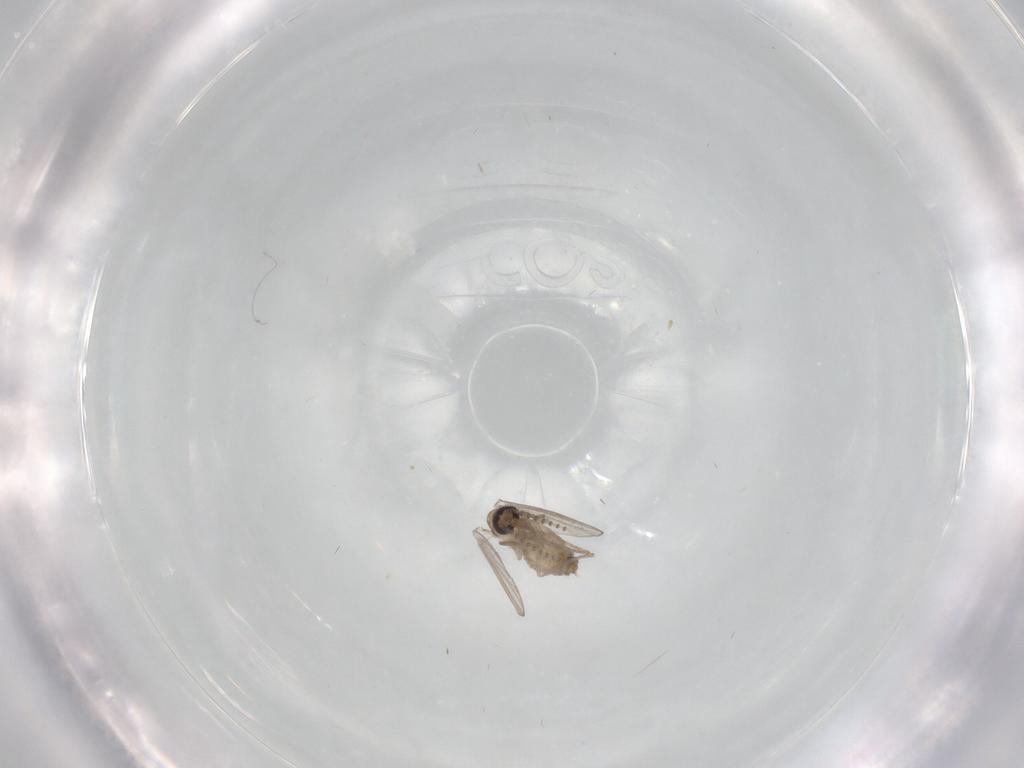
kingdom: Animalia
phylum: Arthropoda
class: Insecta
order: Diptera
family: Psychodidae
